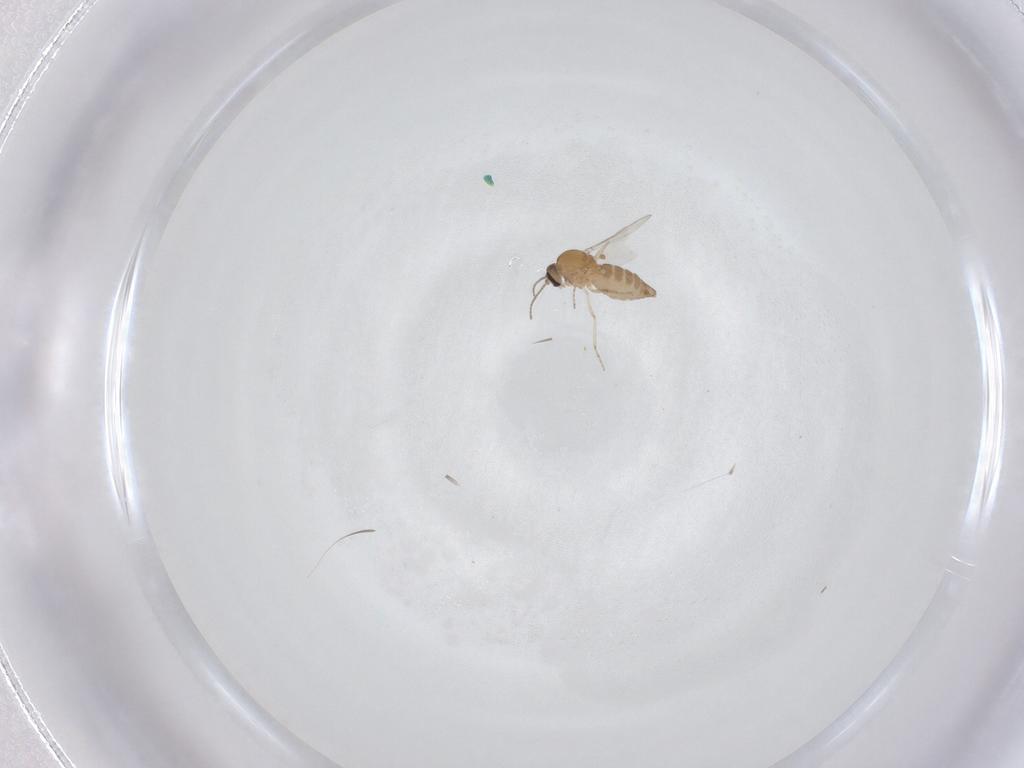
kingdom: Animalia
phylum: Arthropoda
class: Insecta
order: Diptera
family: Ceratopogonidae
